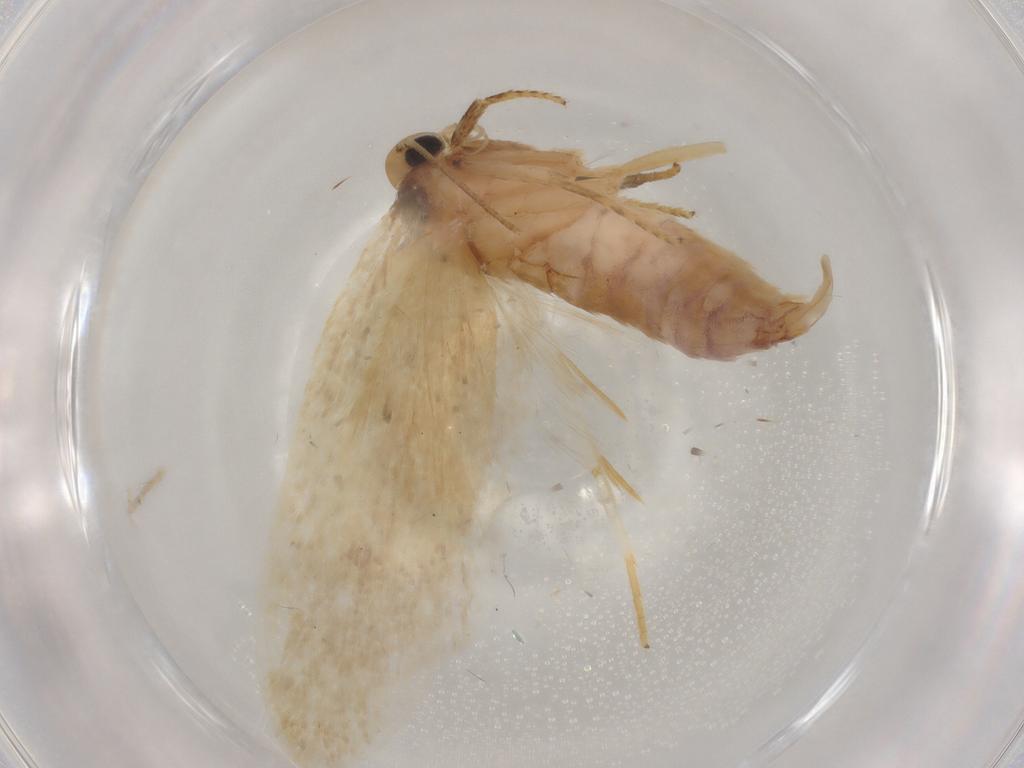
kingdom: Animalia
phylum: Arthropoda
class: Insecta
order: Lepidoptera
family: Depressariidae
